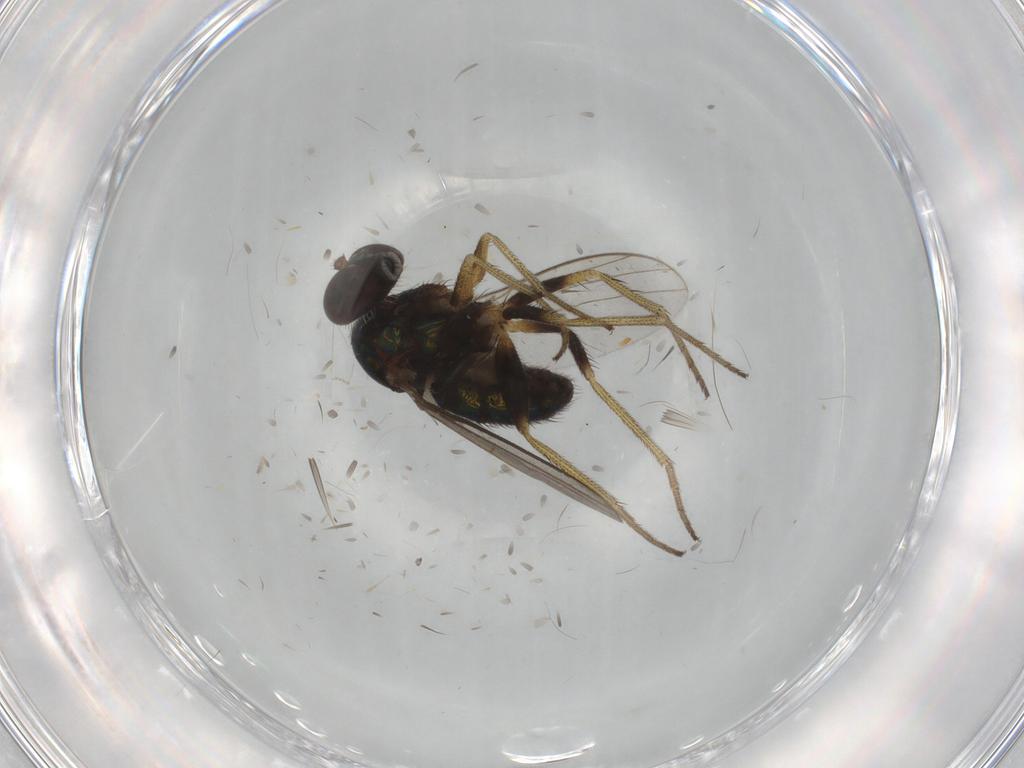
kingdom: Animalia
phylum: Arthropoda
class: Insecta
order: Diptera
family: Dolichopodidae
